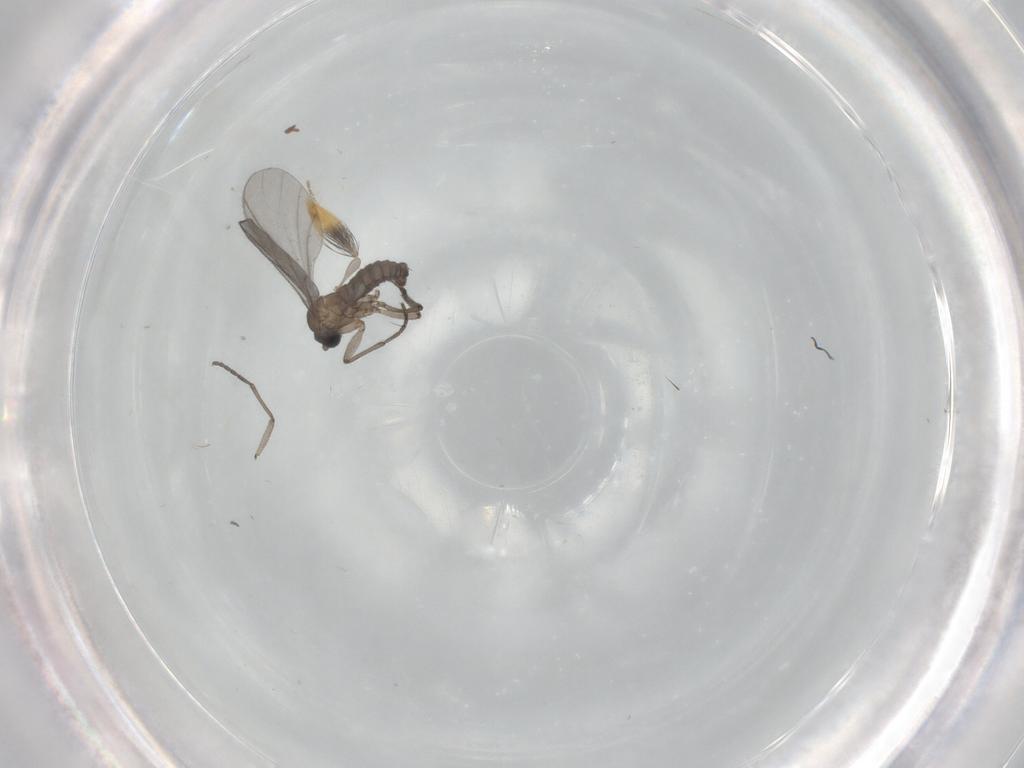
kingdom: Animalia
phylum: Arthropoda
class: Insecta
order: Diptera
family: Sciaridae
